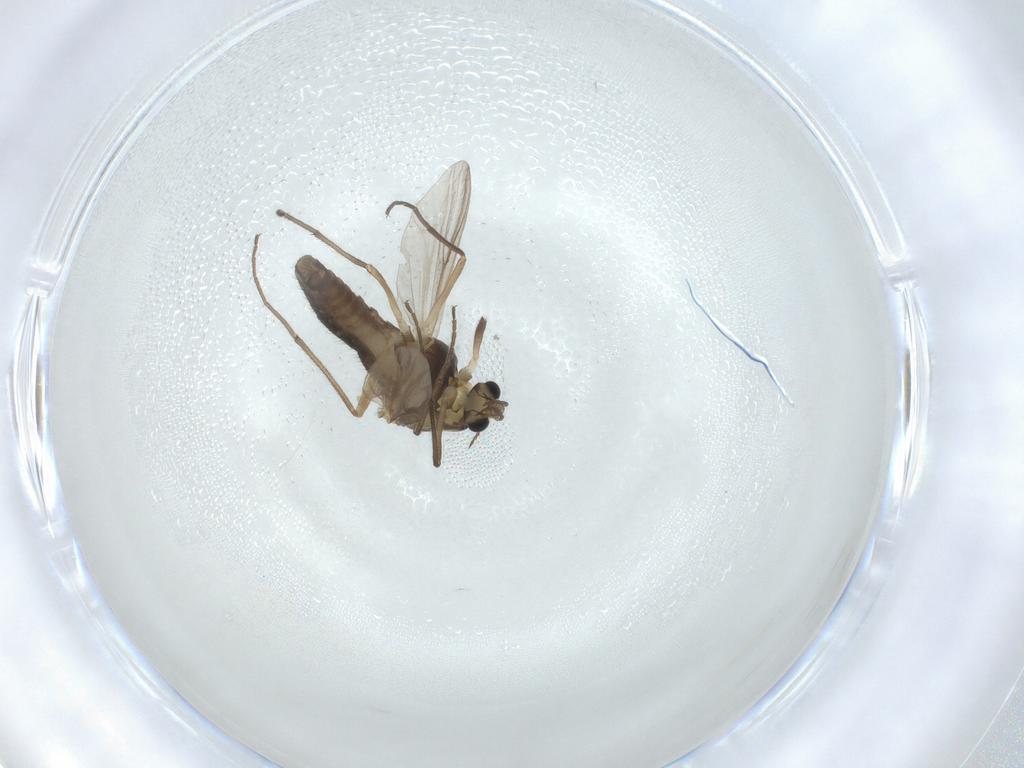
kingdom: Animalia
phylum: Arthropoda
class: Insecta
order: Diptera
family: Chironomidae
